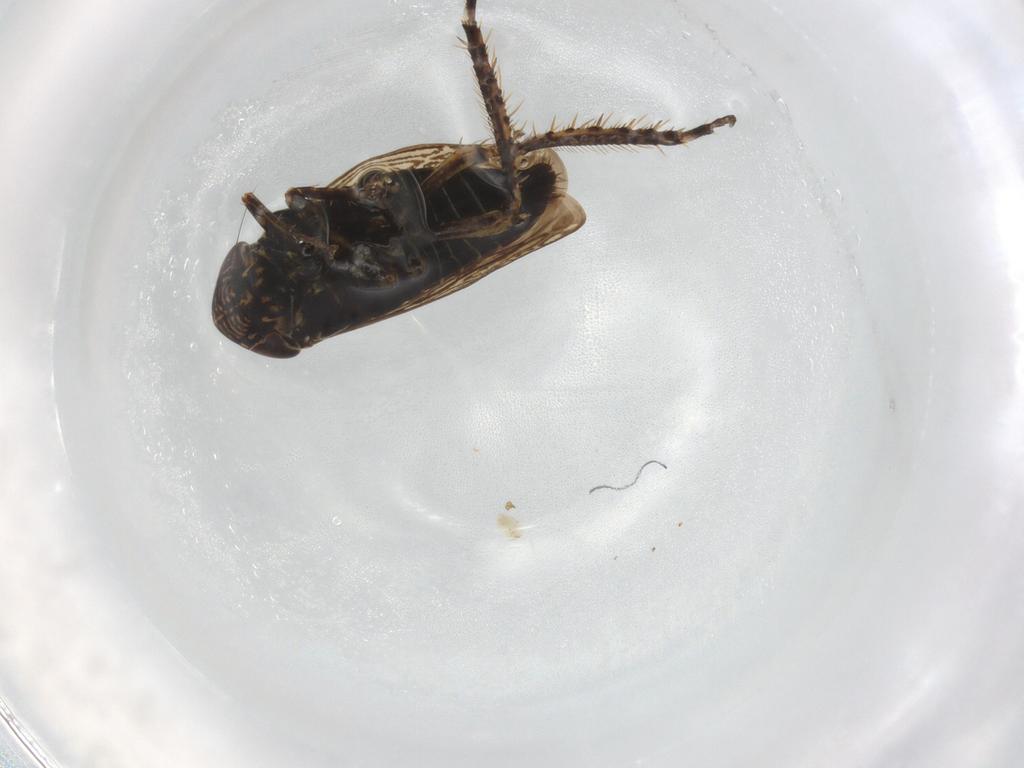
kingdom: Animalia
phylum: Arthropoda
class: Insecta
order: Hemiptera
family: Cicadellidae
